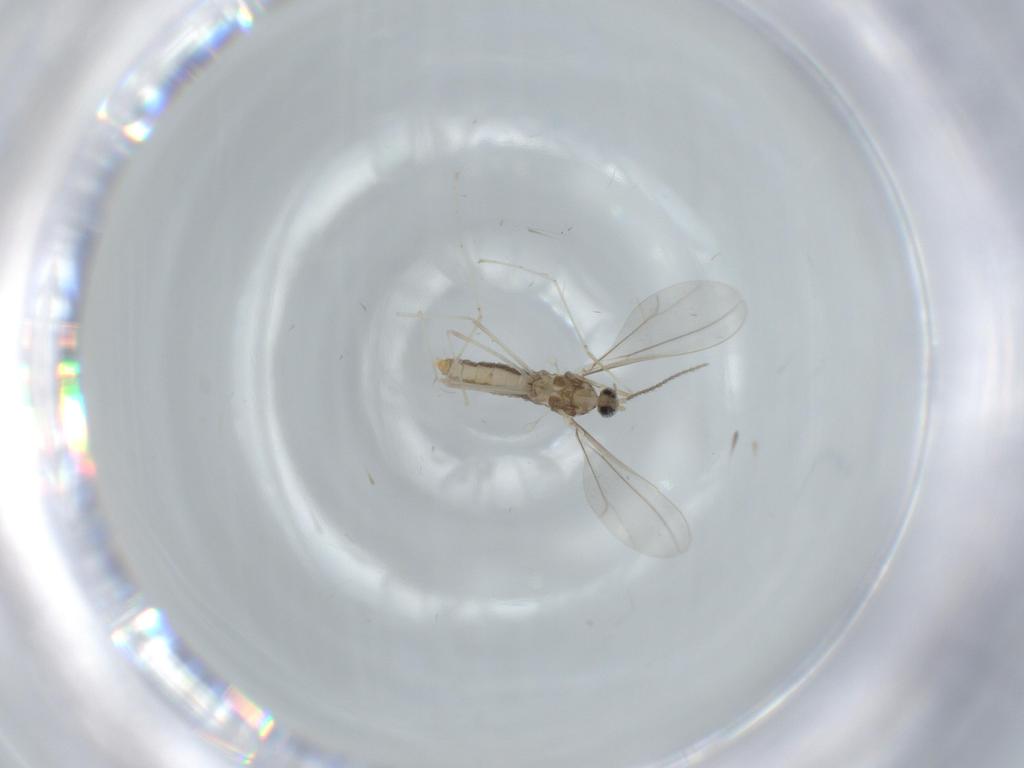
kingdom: Animalia
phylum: Arthropoda
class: Insecta
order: Diptera
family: Cecidomyiidae
